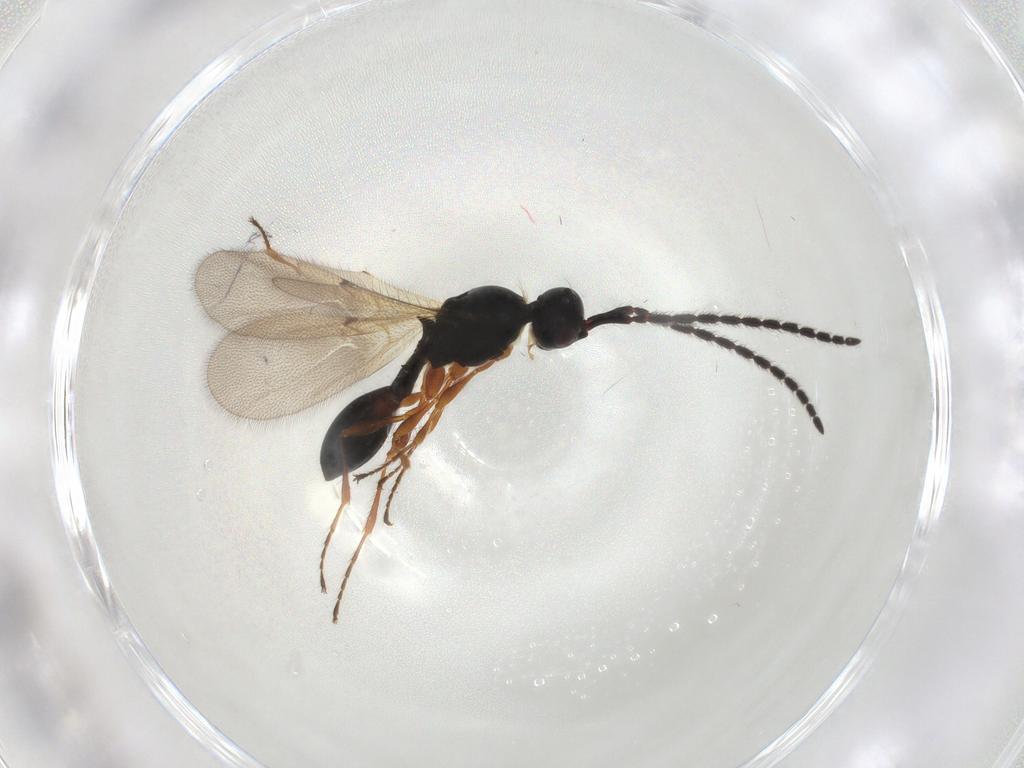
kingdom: Animalia
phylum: Arthropoda
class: Insecta
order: Hymenoptera
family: Diapriidae
